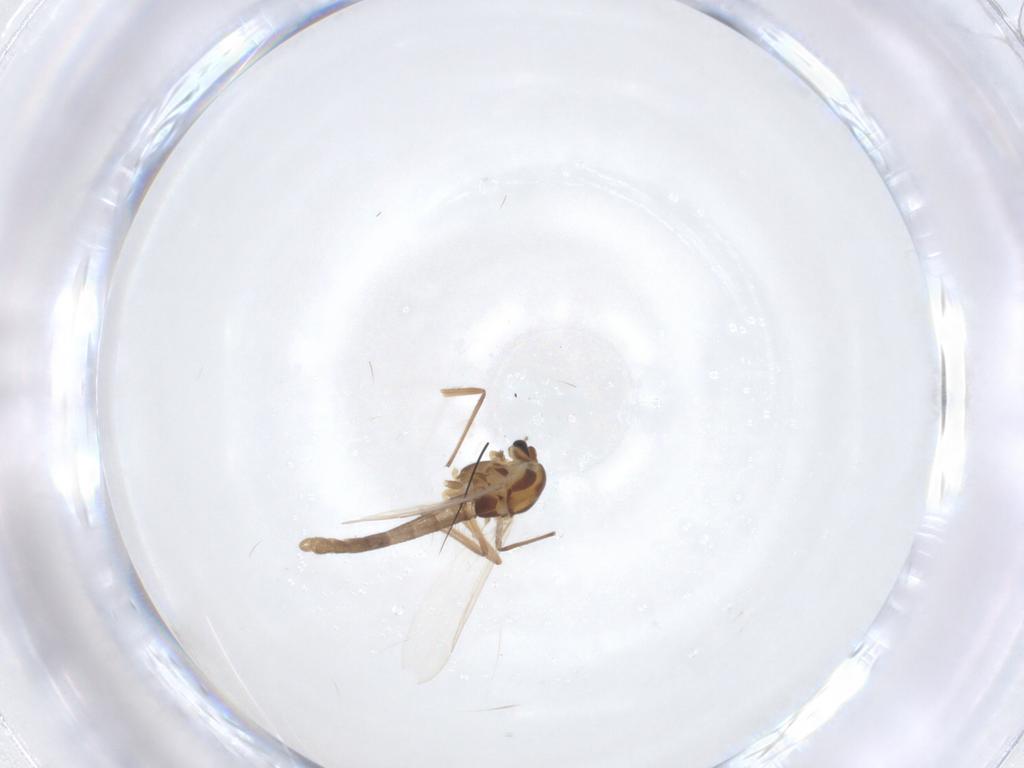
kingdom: Animalia
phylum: Arthropoda
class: Insecta
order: Diptera
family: Chironomidae
